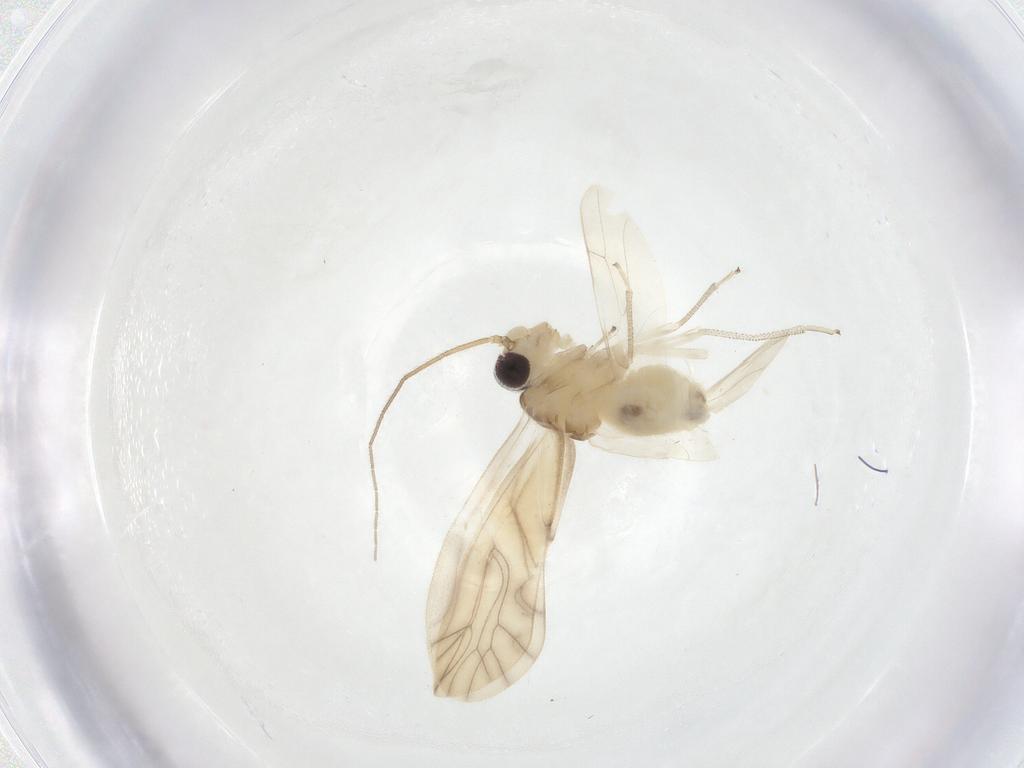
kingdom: Animalia
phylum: Arthropoda
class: Insecta
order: Psocodea
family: Caeciliusidae
